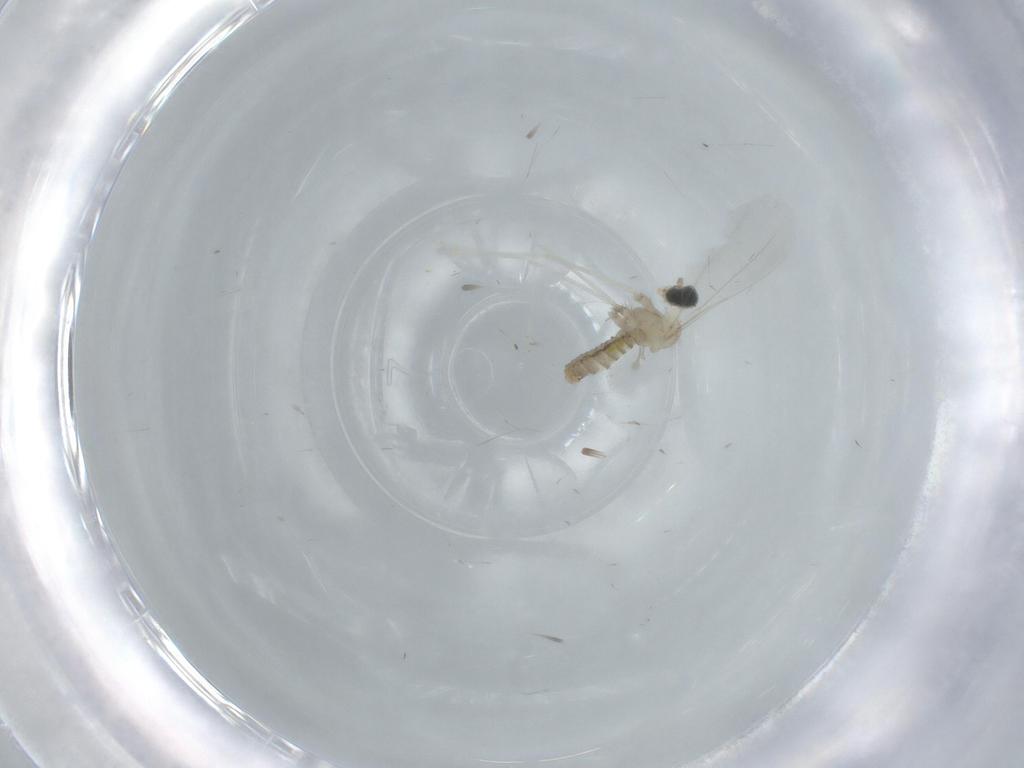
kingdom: Animalia
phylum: Arthropoda
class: Insecta
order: Diptera
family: Cecidomyiidae
